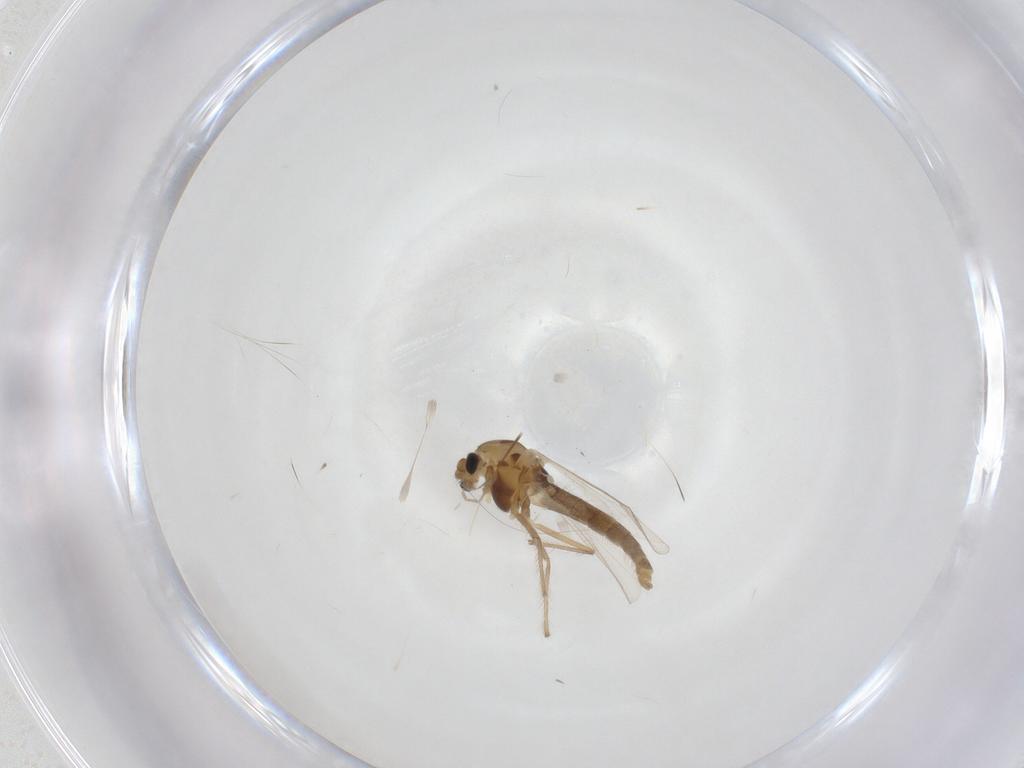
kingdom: Animalia
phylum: Arthropoda
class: Insecta
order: Diptera
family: Chironomidae
